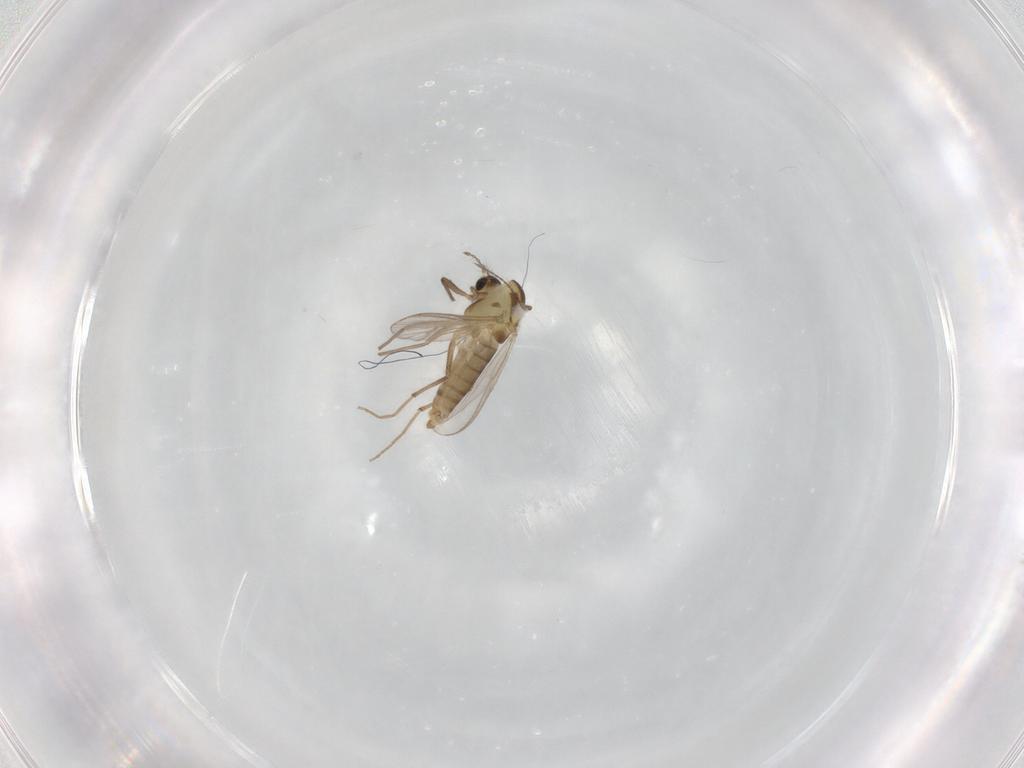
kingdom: Animalia
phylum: Arthropoda
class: Insecta
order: Diptera
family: Chironomidae
